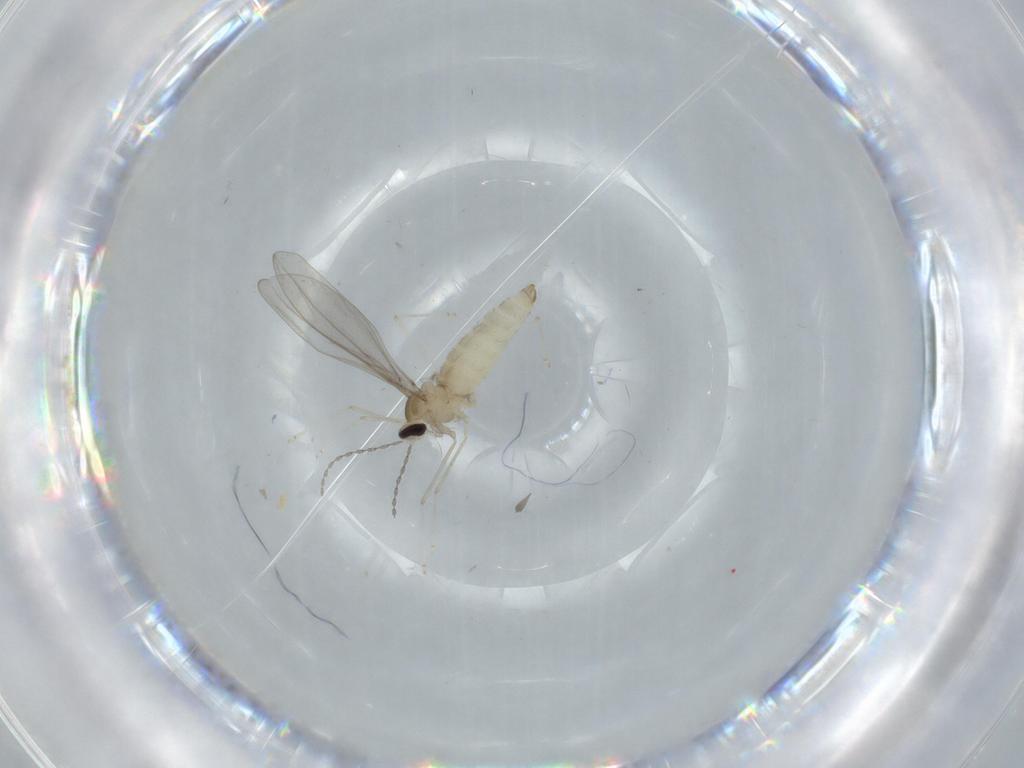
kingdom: Animalia
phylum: Arthropoda
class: Insecta
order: Diptera
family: Cecidomyiidae
